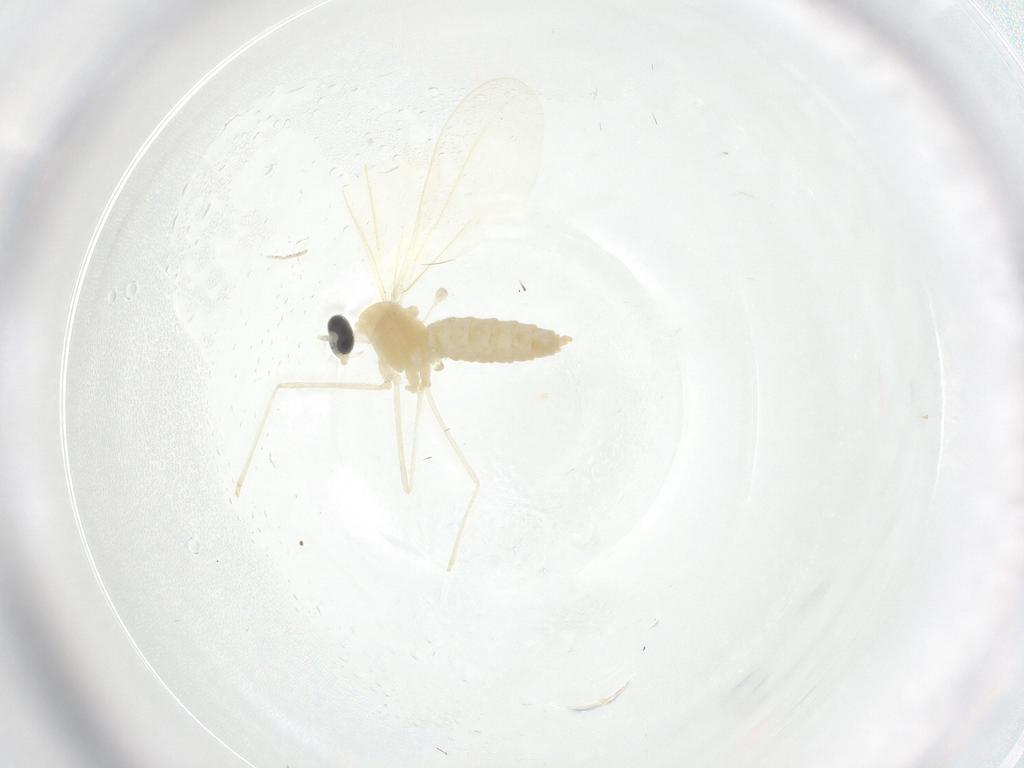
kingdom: Animalia
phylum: Arthropoda
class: Insecta
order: Diptera
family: Cecidomyiidae
